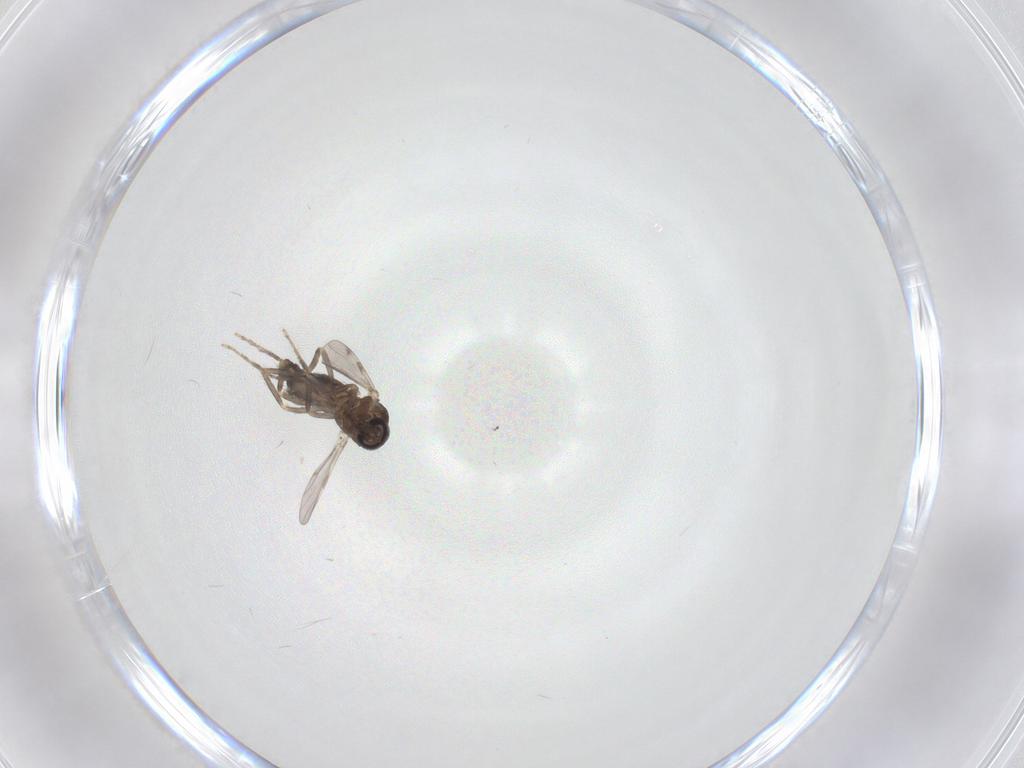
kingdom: Animalia
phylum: Arthropoda
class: Insecta
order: Diptera
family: Ceratopogonidae
